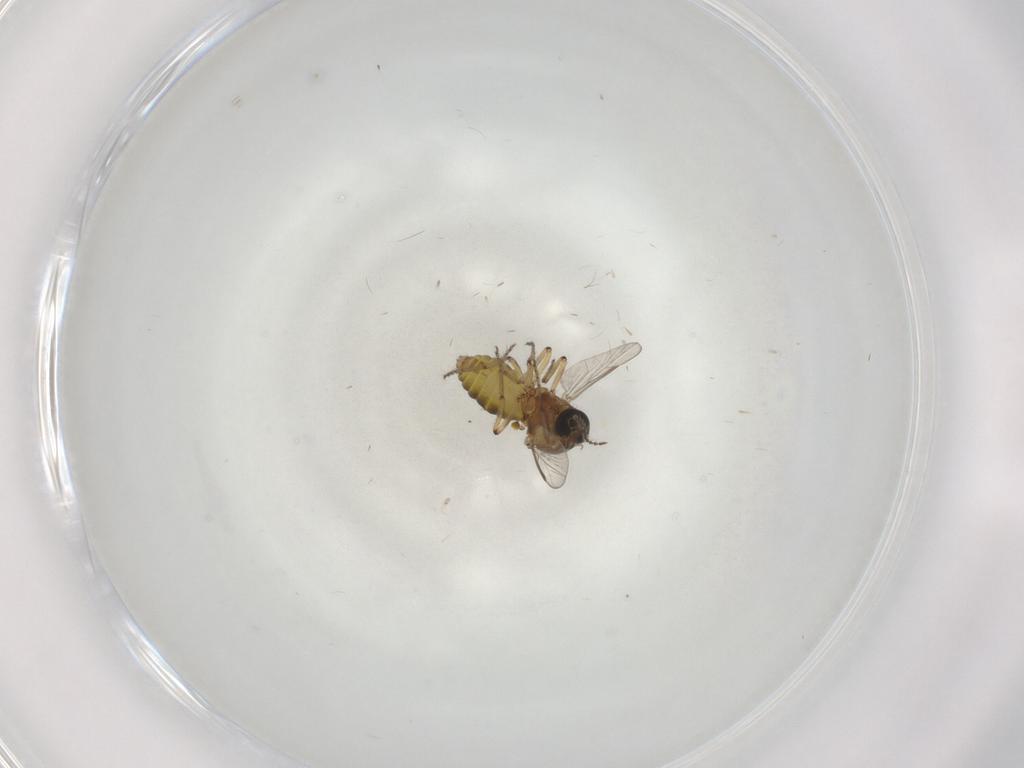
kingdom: Animalia
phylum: Arthropoda
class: Insecta
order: Diptera
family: Ceratopogonidae
